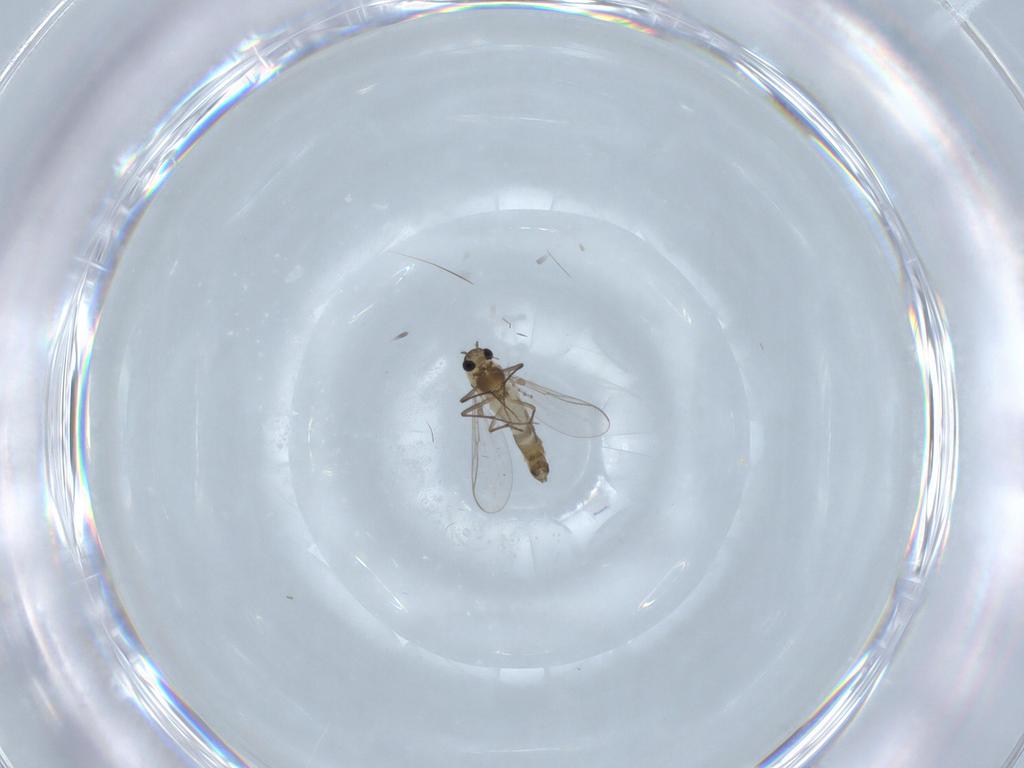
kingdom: Animalia
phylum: Arthropoda
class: Insecta
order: Diptera
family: Chironomidae
